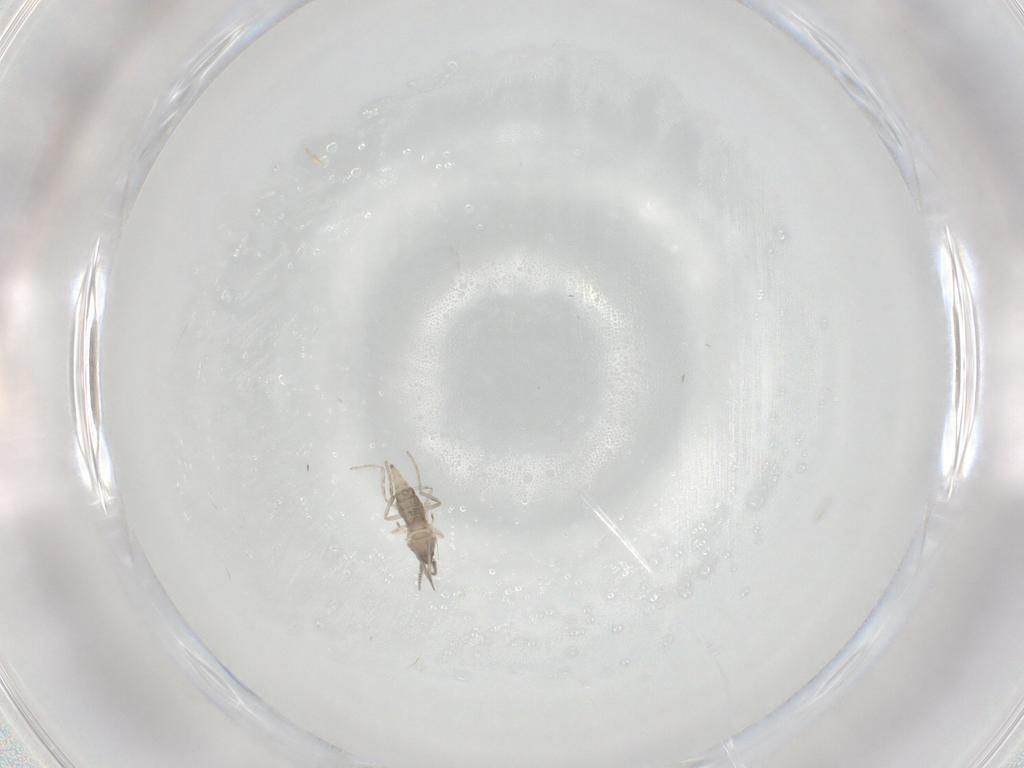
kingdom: Animalia
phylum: Arthropoda
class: Insecta
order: Diptera
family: Cecidomyiidae
